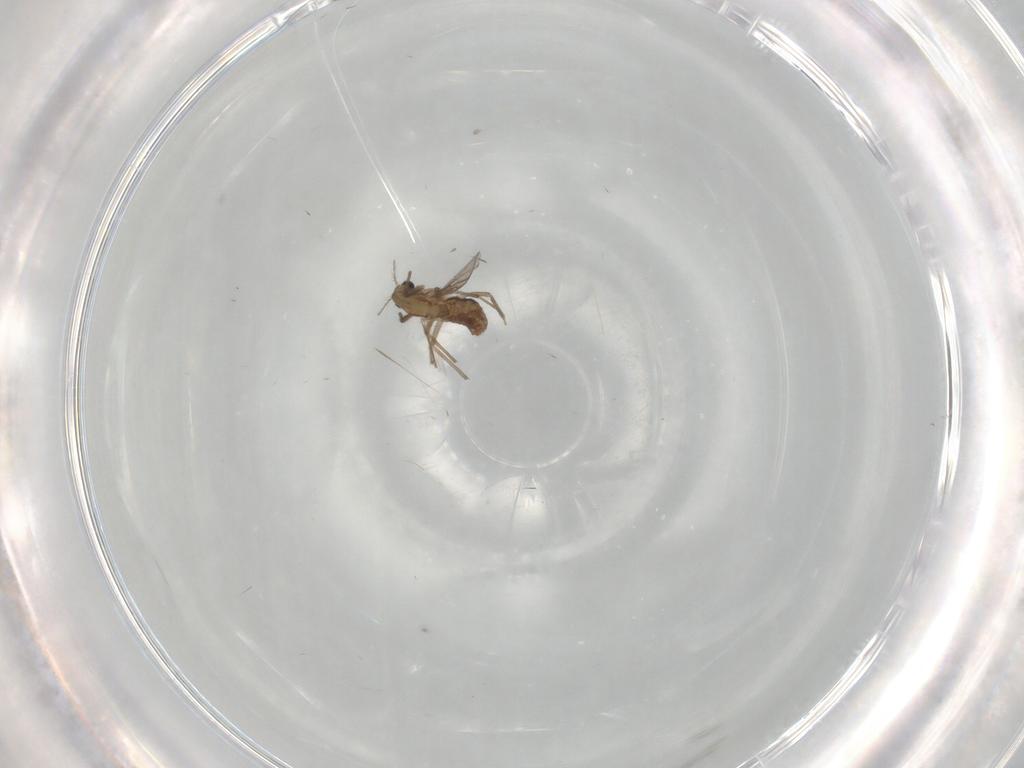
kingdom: Animalia
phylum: Arthropoda
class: Insecta
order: Diptera
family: Chironomidae
